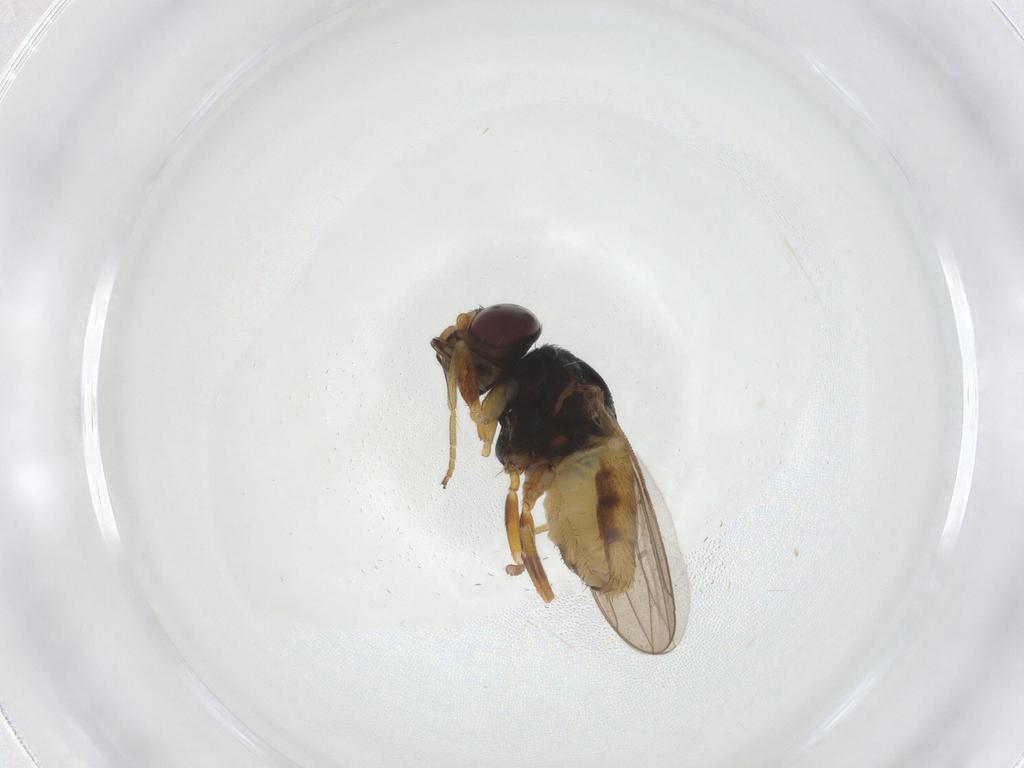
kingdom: Animalia
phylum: Arthropoda
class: Insecta
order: Diptera
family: Chloropidae
